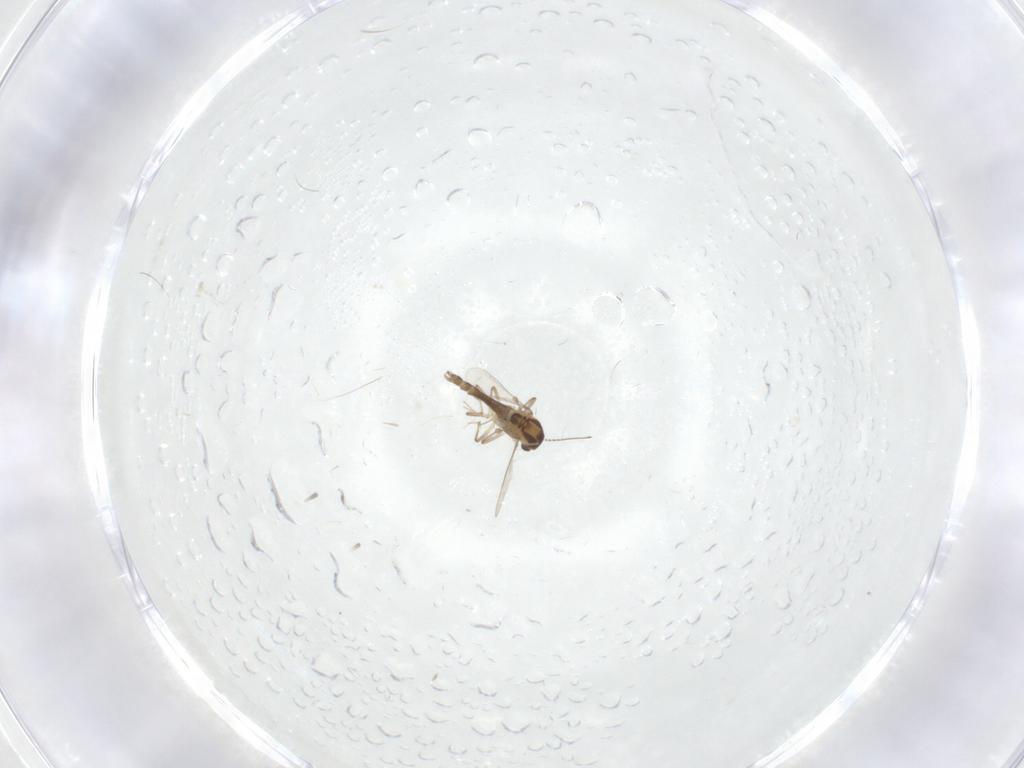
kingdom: Animalia
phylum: Arthropoda
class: Insecta
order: Diptera
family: Chironomidae
